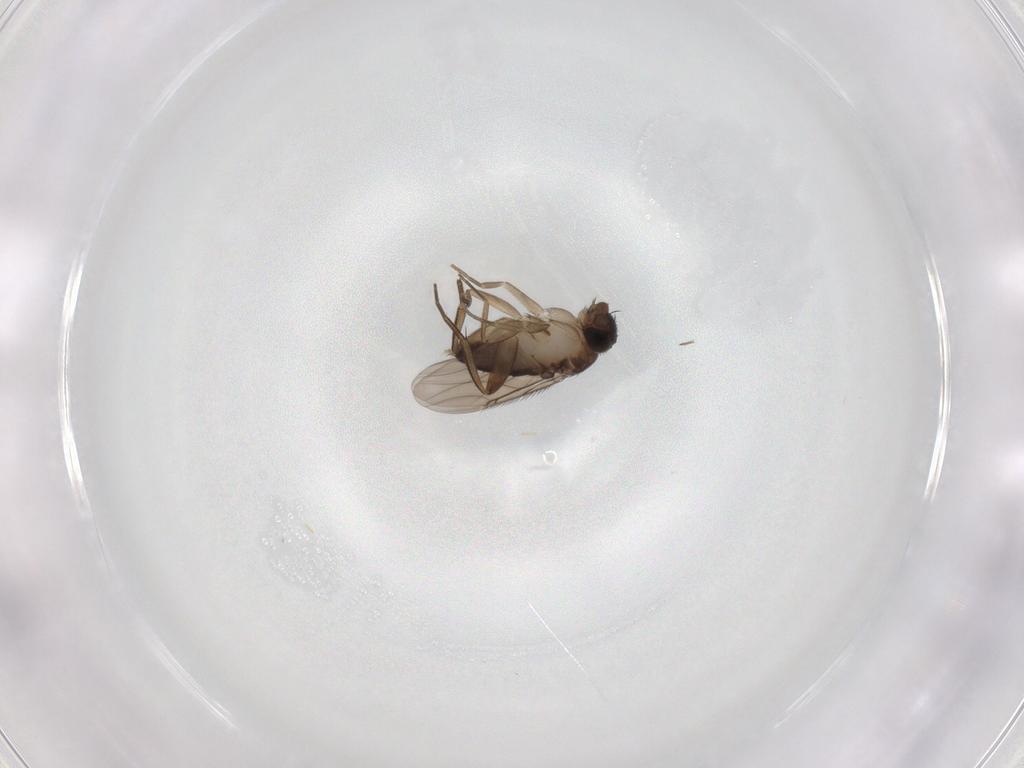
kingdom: Animalia
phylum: Arthropoda
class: Insecta
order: Diptera
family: Phoridae
